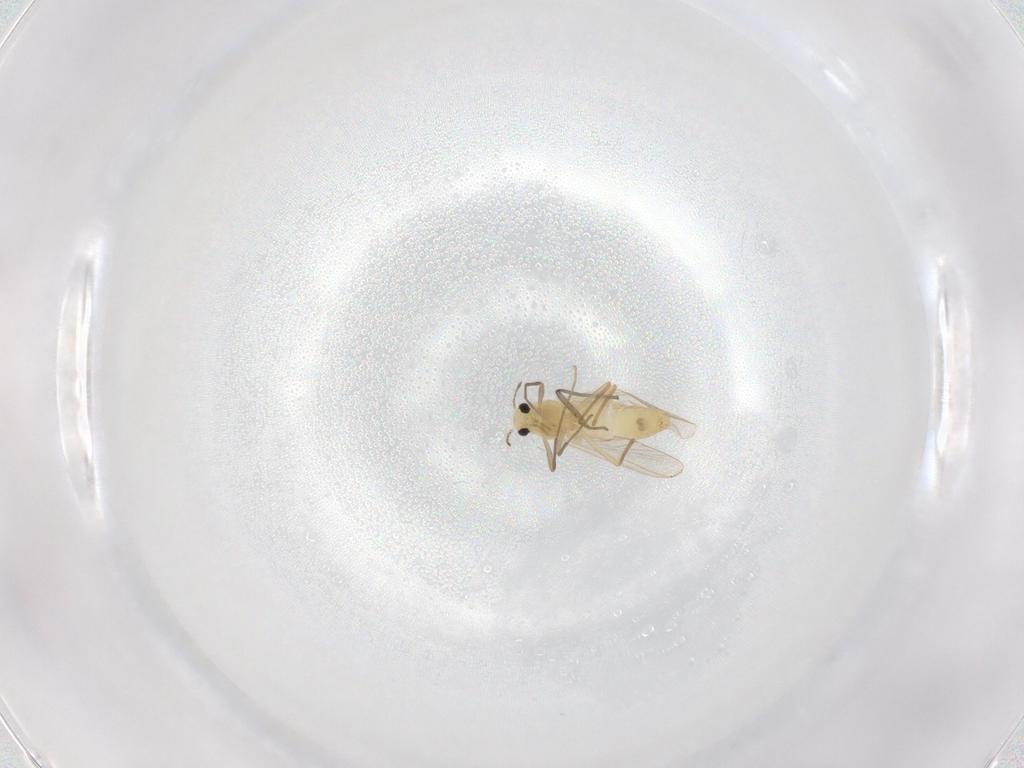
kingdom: Animalia
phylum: Arthropoda
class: Insecta
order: Diptera
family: Chironomidae
